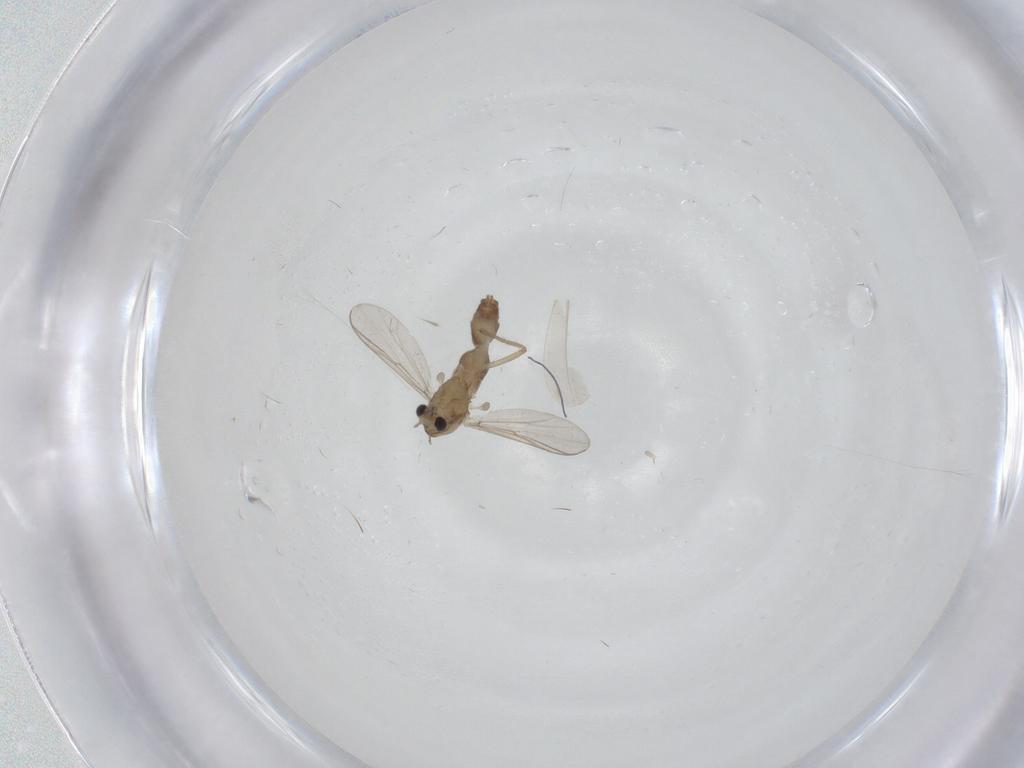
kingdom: Animalia
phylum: Arthropoda
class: Insecta
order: Diptera
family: Chironomidae
